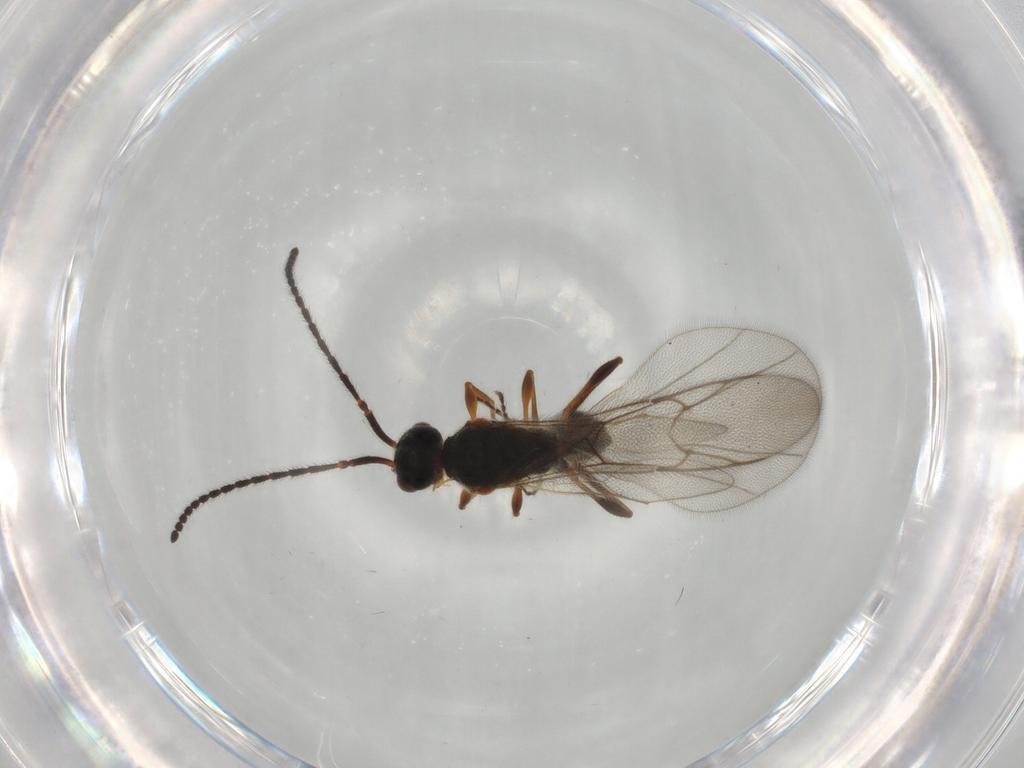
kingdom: Animalia
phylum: Arthropoda
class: Insecta
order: Hymenoptera
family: Diapriidae
